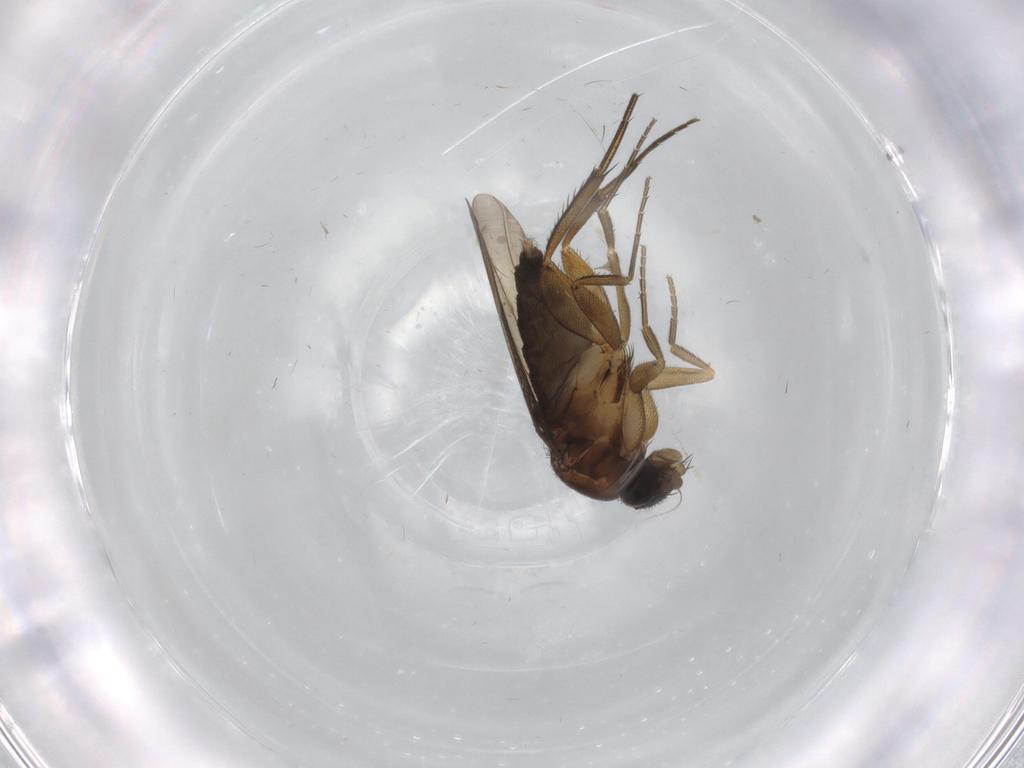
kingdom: Animalia
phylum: Arthropoda
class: Insecta
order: Diptera
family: Phoridae
